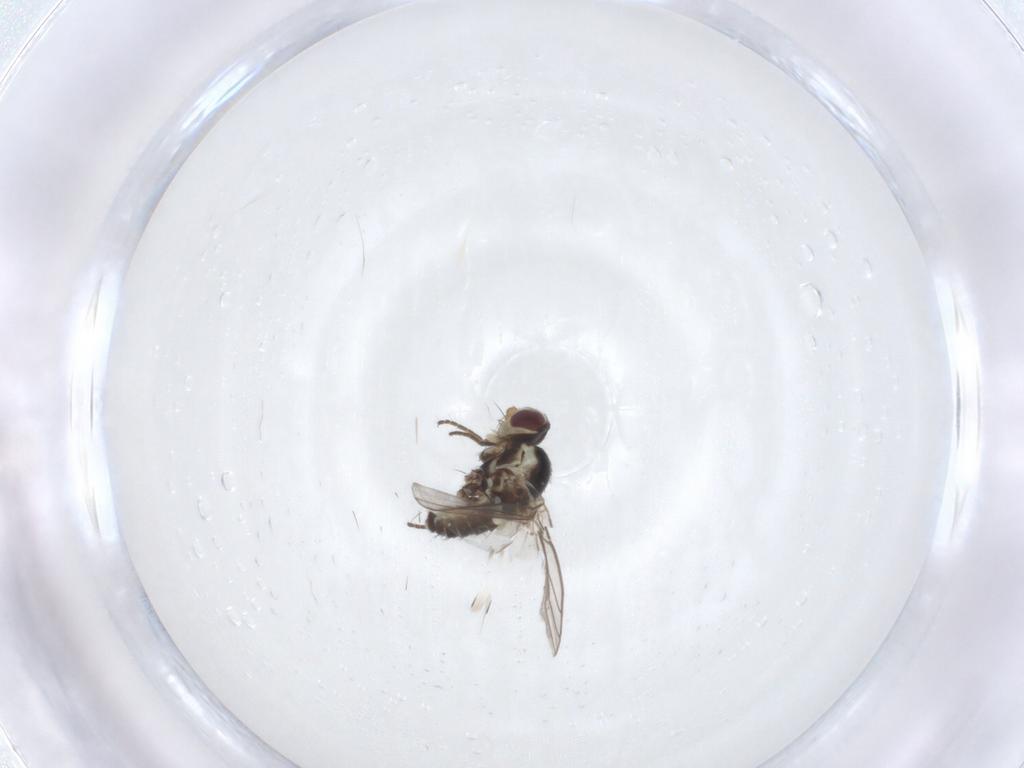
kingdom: Animalia
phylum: Arthropoda
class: Insecta
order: Diptera
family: Agromyzidae
